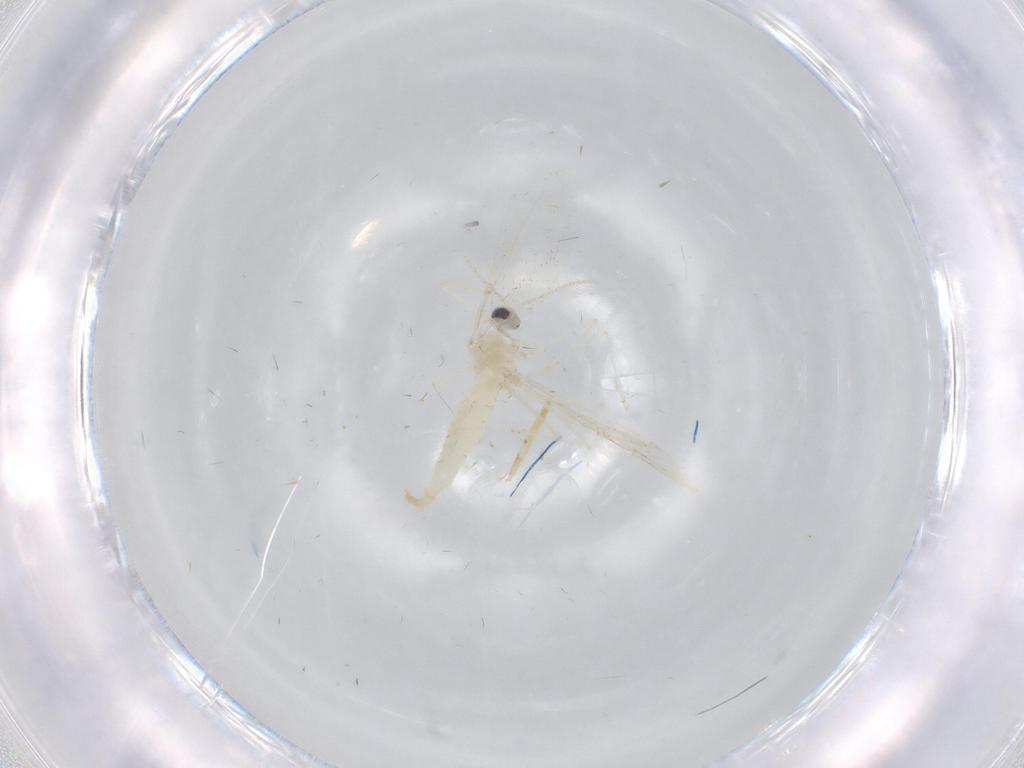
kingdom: Animalia
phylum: Arthropoda
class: Insecta
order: Diptera
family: Cecidomyiidae
